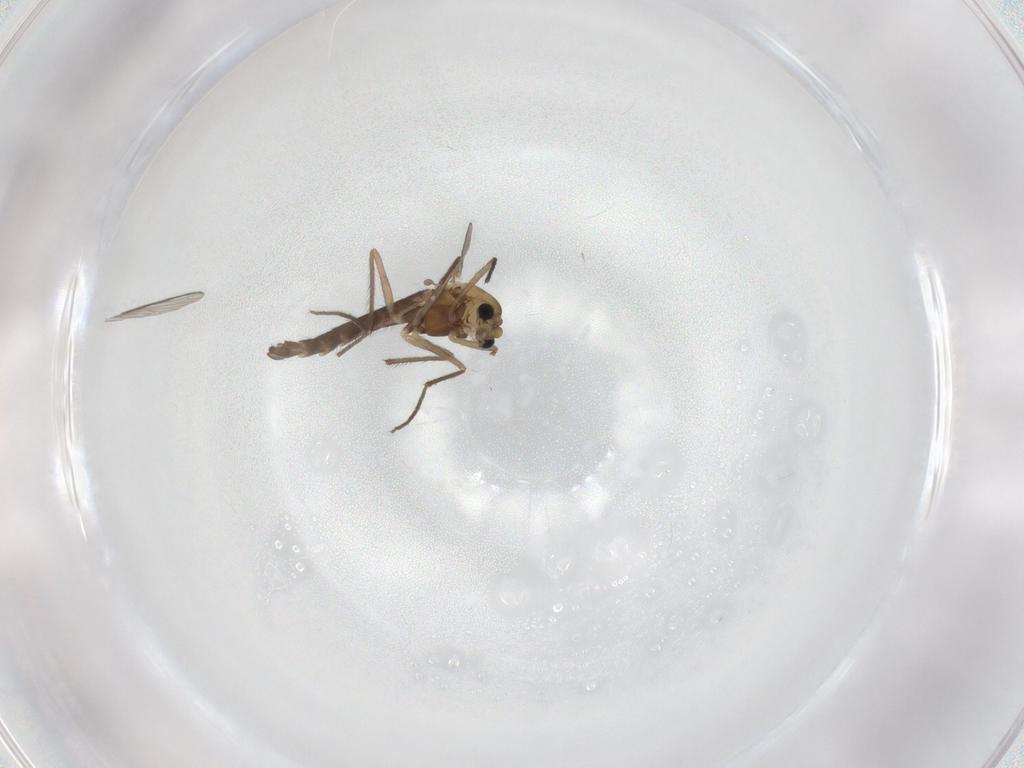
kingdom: Animalia
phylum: Arthropoda
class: Insecta
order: Diptera
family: Chironomidae
